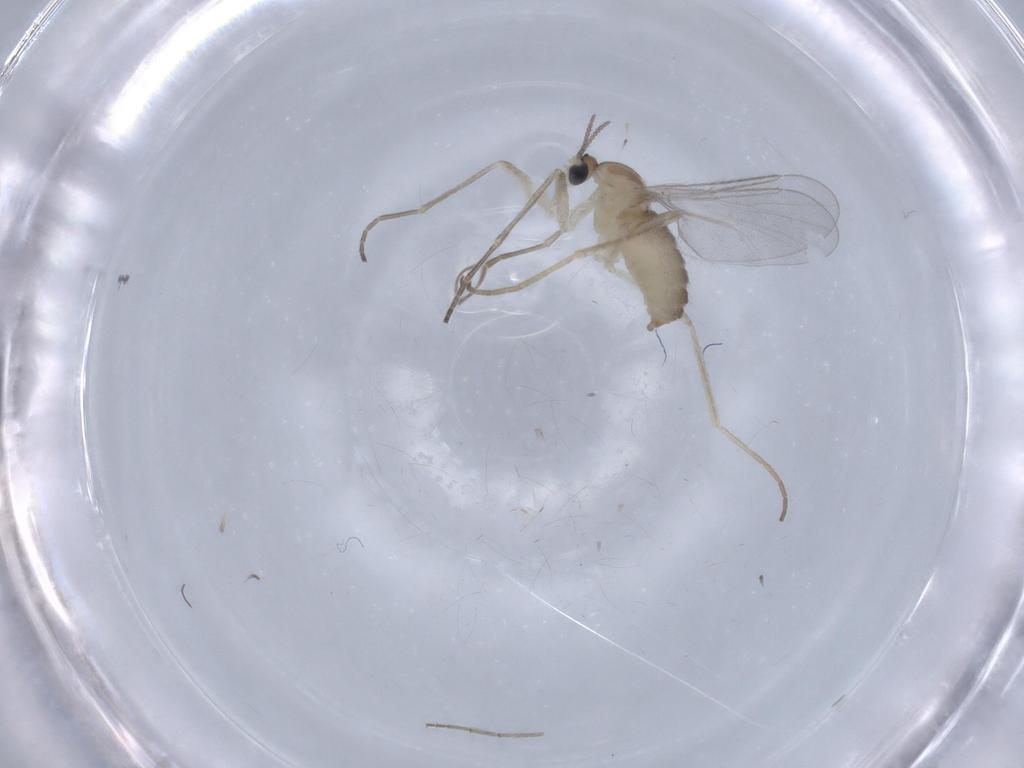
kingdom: Animalia
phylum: Arthropoda
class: Insecta
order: Diptera
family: Cecidomyiidae
